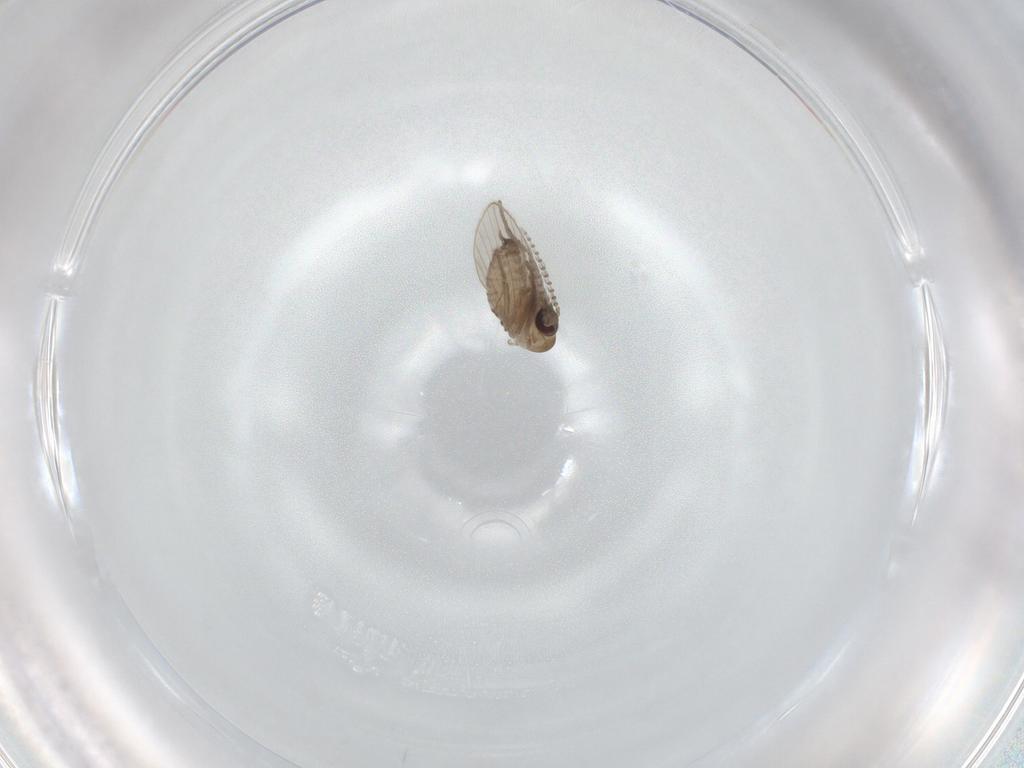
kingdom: Animalia
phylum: Arthropoda
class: Insecta
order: Diptera
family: Psychodidae
